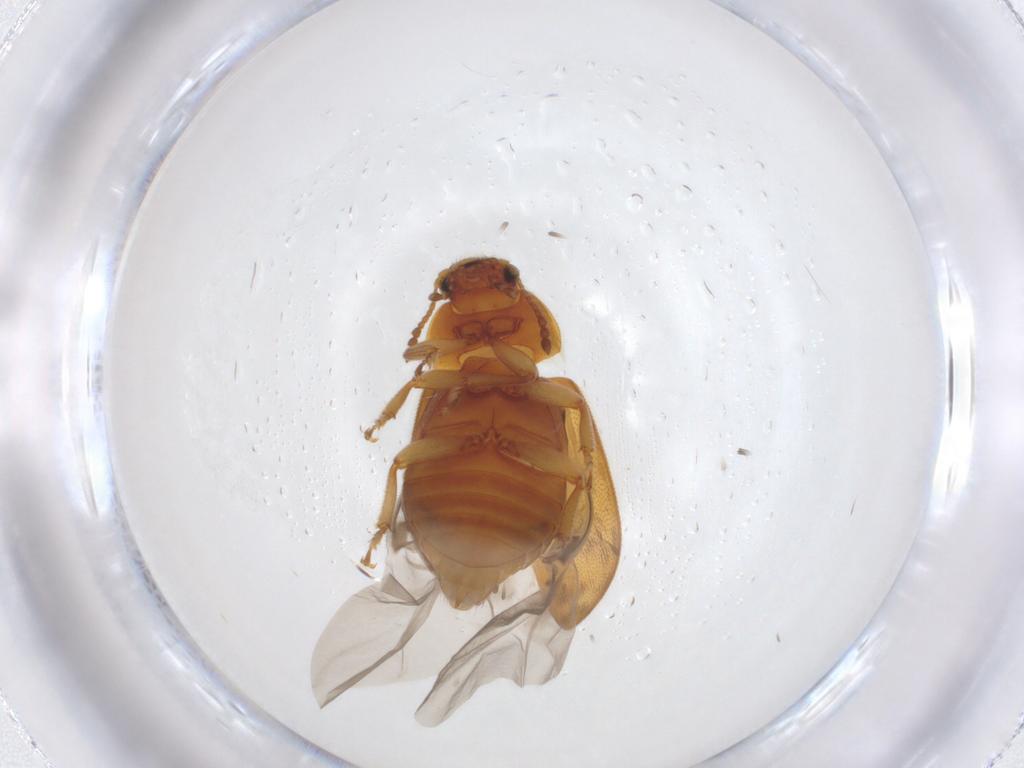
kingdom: Animalia
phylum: Arthropoda
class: Insecta
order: Coleoptera
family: Byturidae
